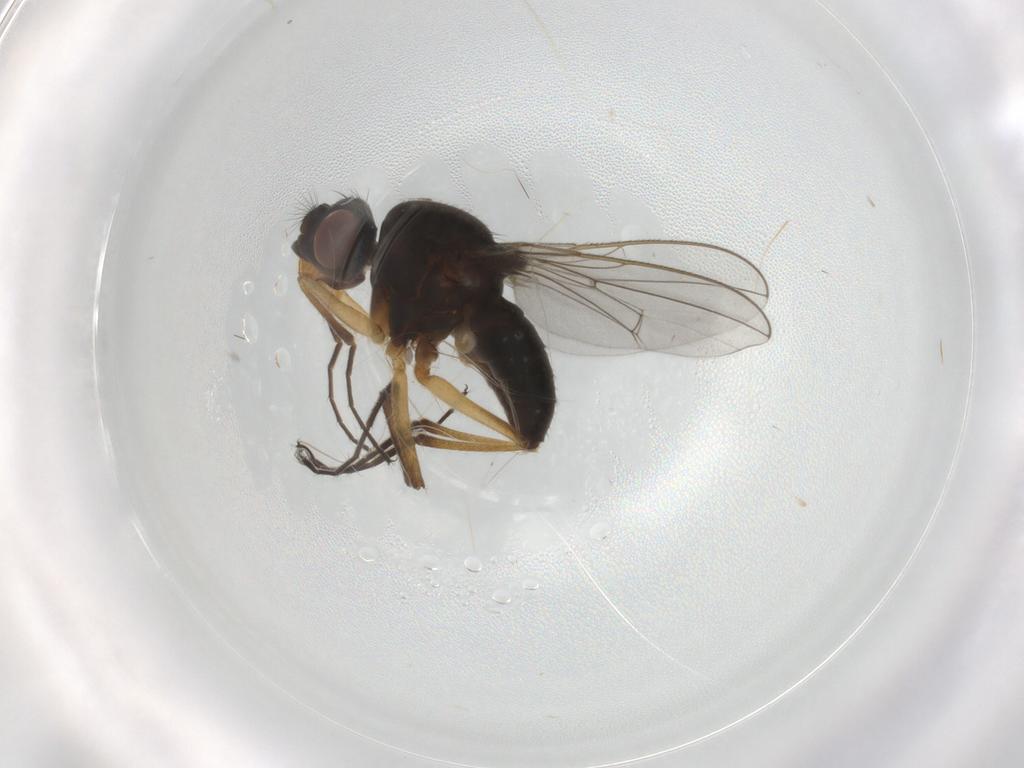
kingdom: Animalia
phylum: Arthropoda
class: Insecta
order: Diptera
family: Ephydridae
